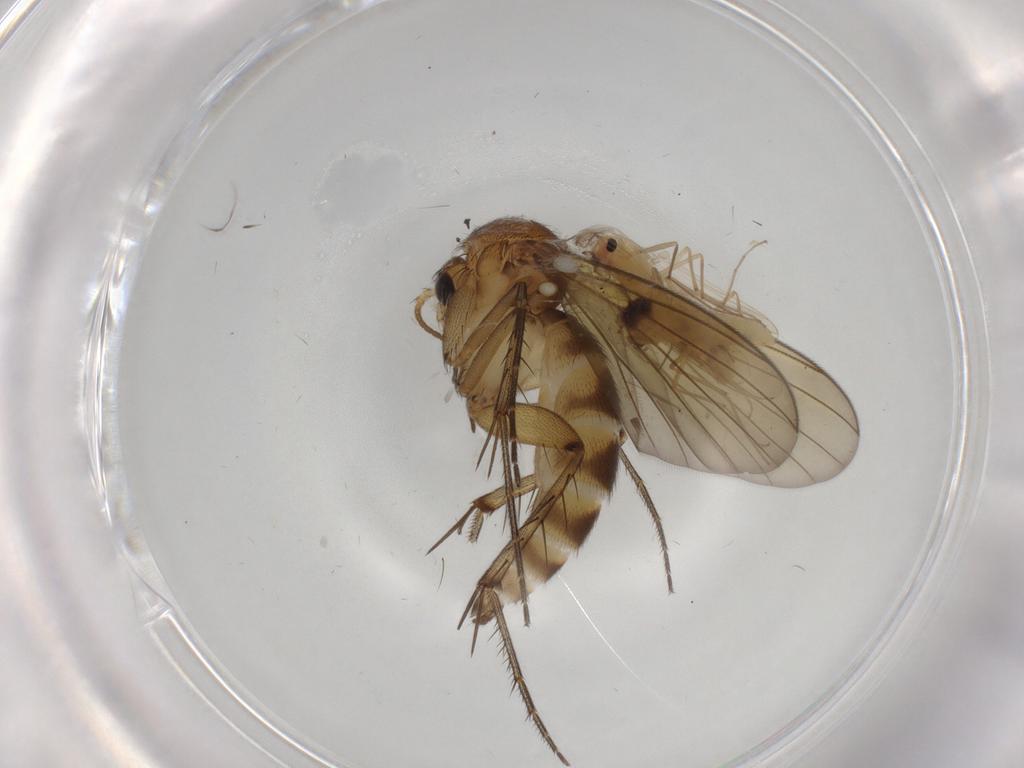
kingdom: Animalia
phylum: Arthropoda
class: Insecta
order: Diptera
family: Chironomidae
